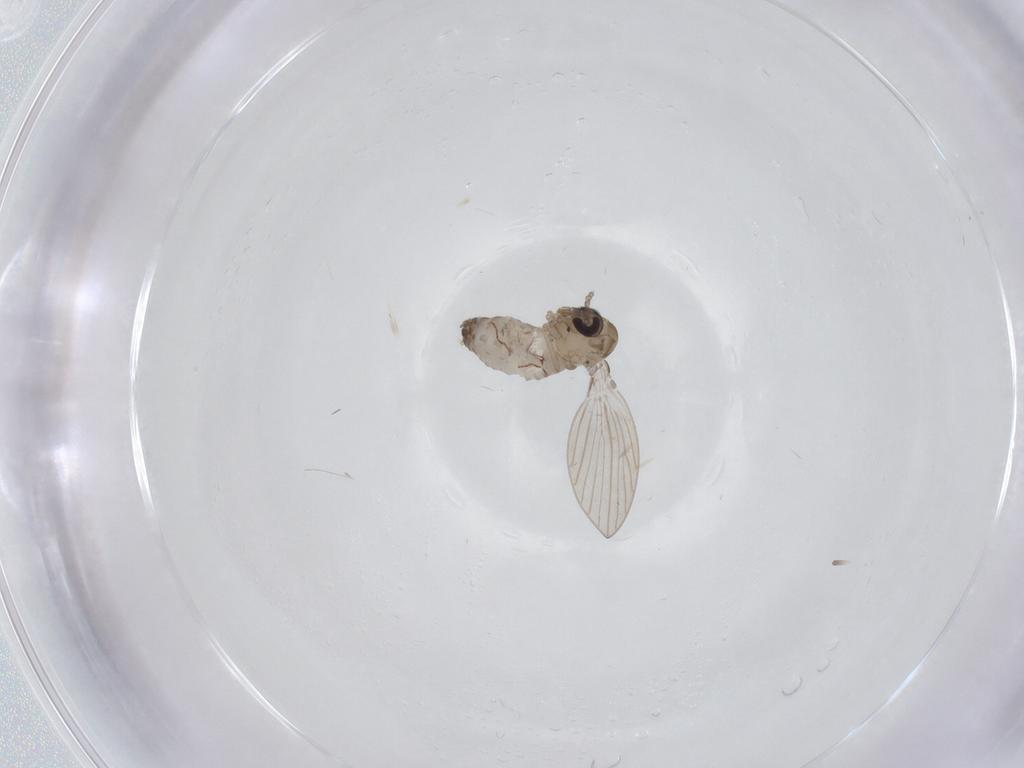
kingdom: Animalia
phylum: Arthropoda
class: Insecta
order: Diptera
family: Psychodidae
